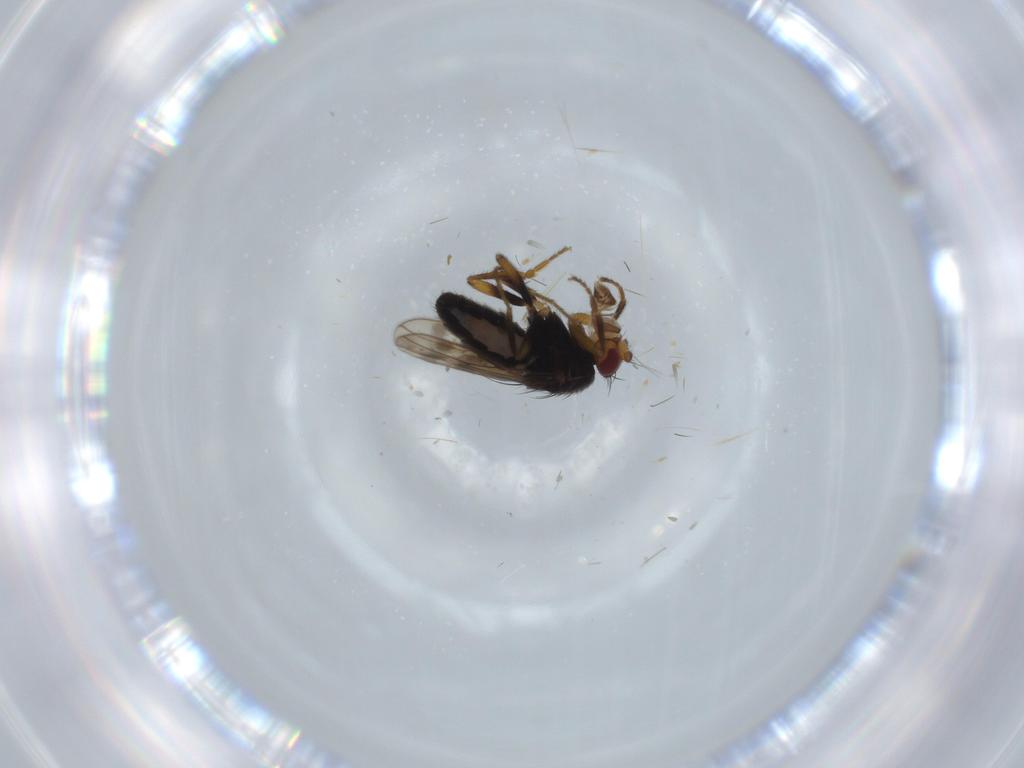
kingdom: Animalia
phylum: Arthropoda
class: Insecta
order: Diptera
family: Sphaeroceridae
